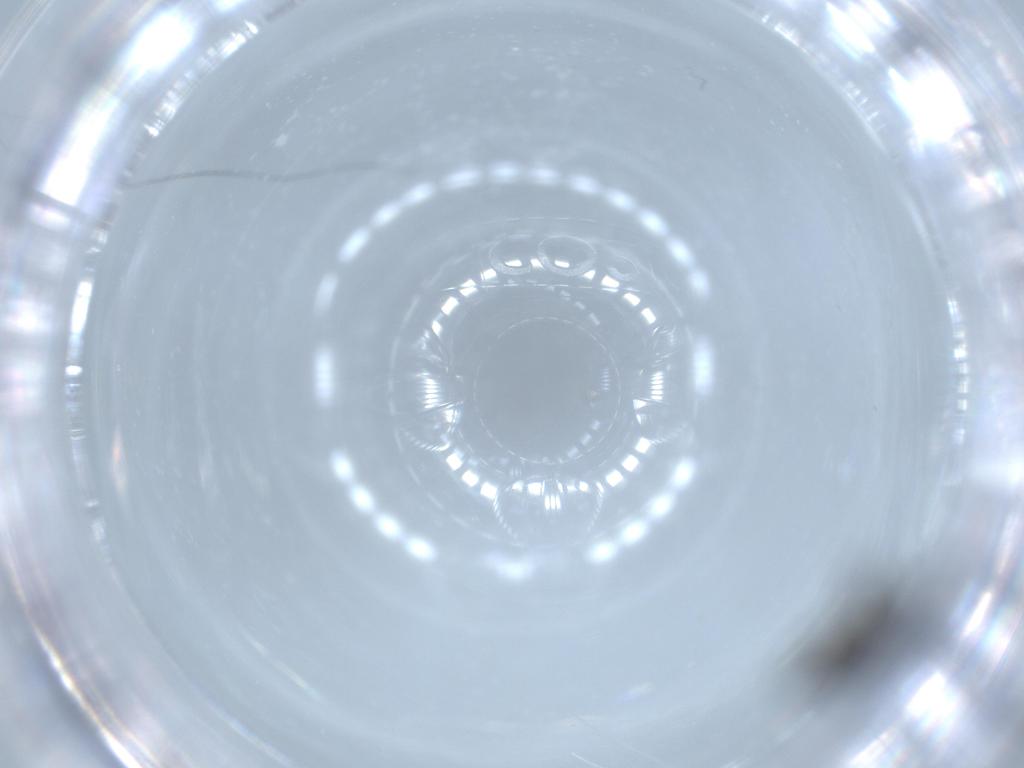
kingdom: Animalia
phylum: Arthropoda
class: Insecta
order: Diptera
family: Sciaridae
